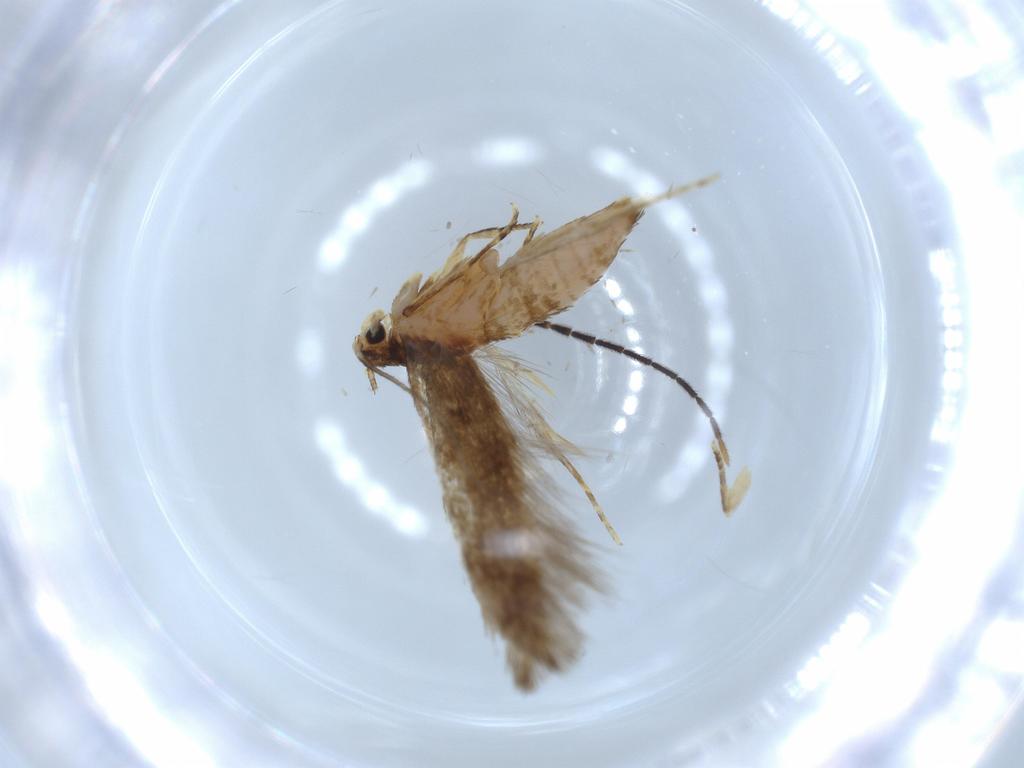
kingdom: Animalia
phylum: Arthropoda
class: Insecta
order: Lepidoptera
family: Tineidae
